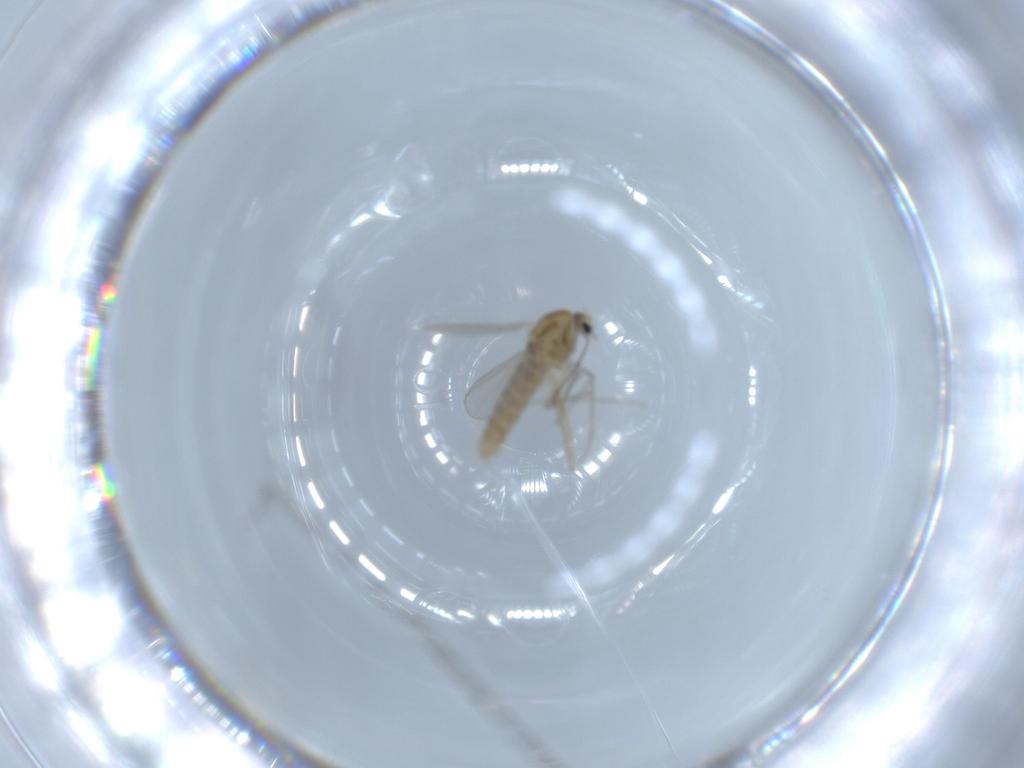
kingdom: Animalia
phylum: Arthropoda
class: Insecta
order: Diptera
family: Chironomidae
